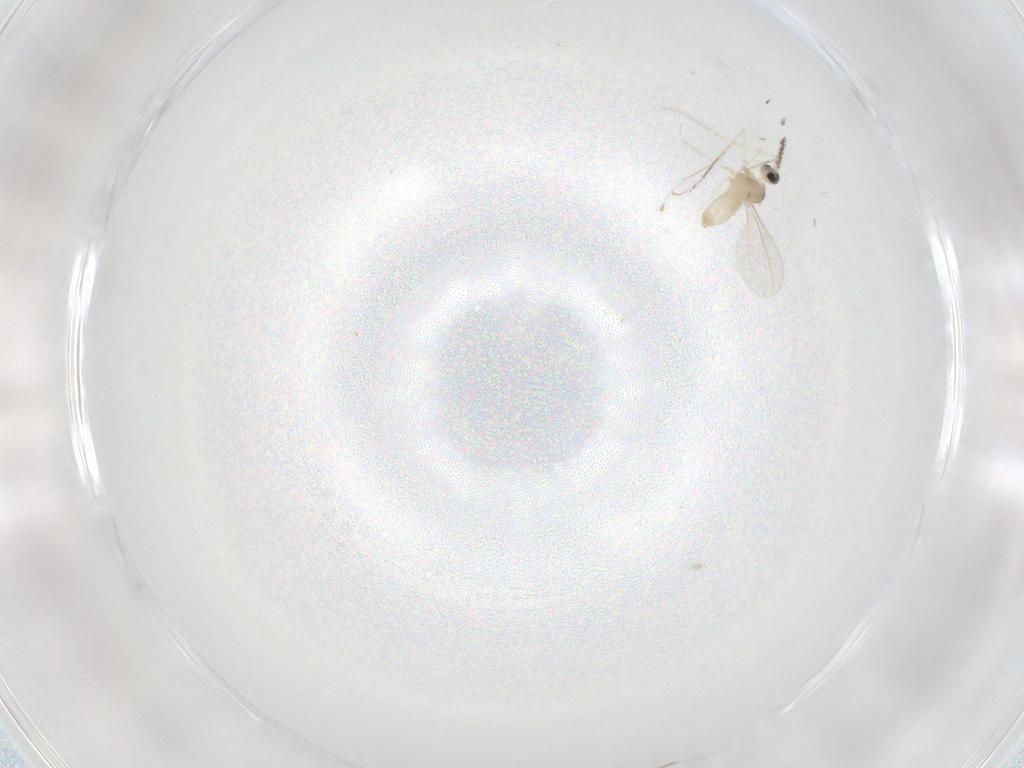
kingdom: Animalia
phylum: Arthropoda
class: Insecta
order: Diptera
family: Cecidomyiidae
